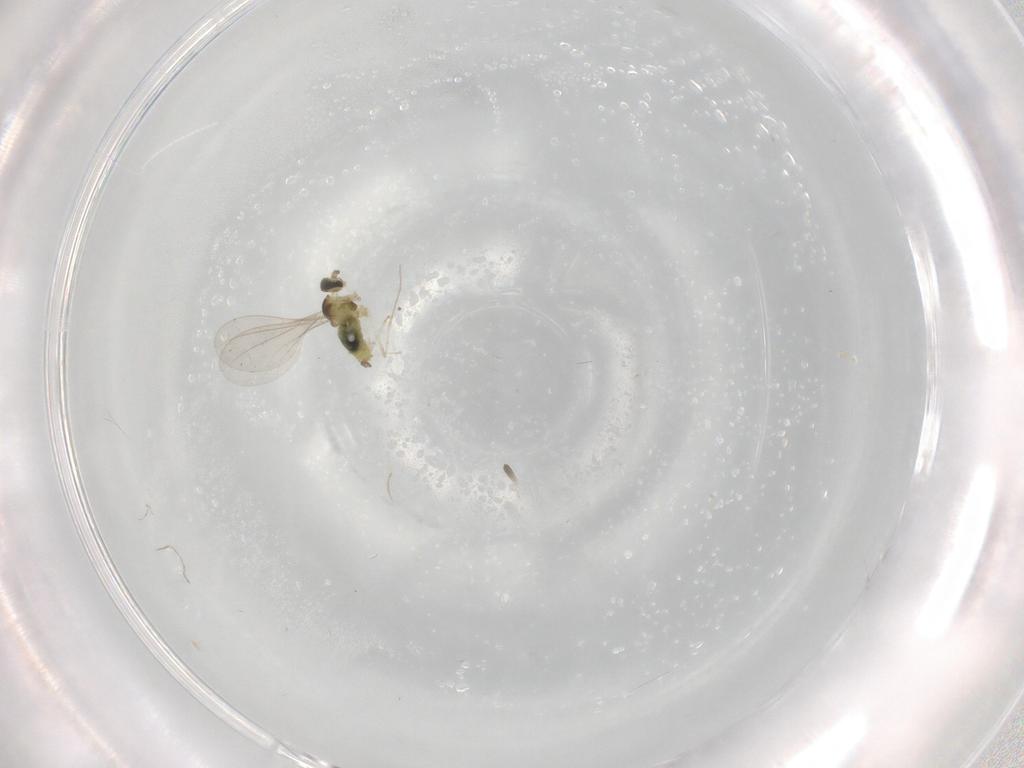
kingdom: Animalia
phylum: Arthropoda
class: Insecta
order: Diptera
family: Cecidomyiidae
